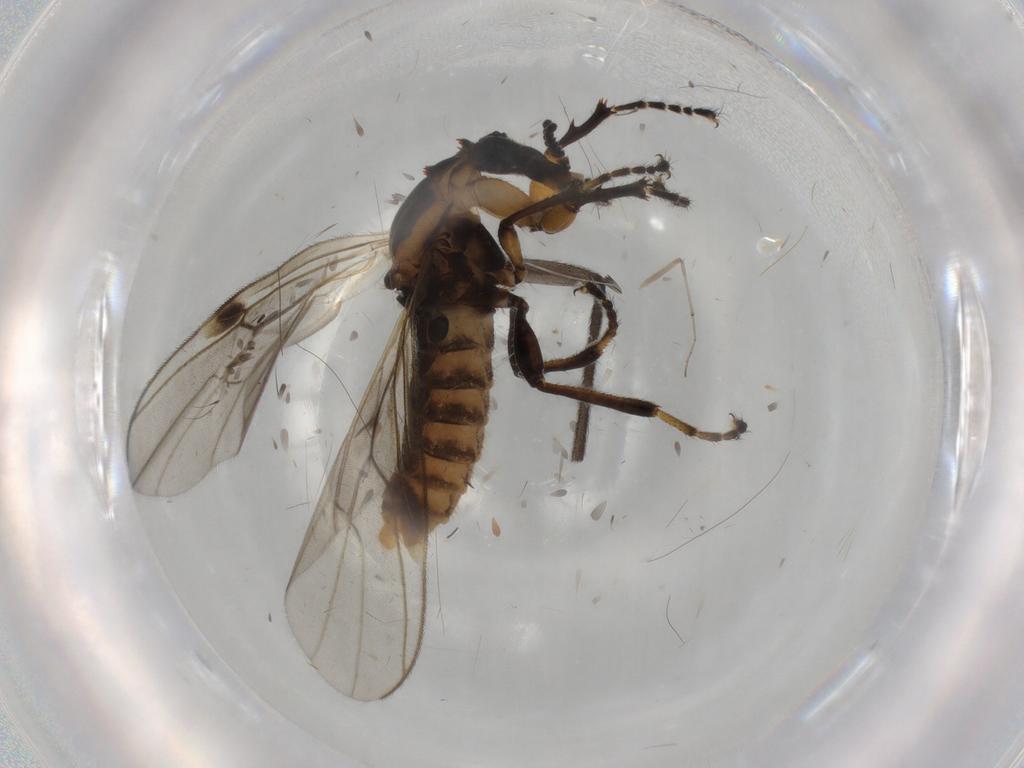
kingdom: Animalia
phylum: Arthropoda
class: Insecta
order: Diptera
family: Bibionidae
